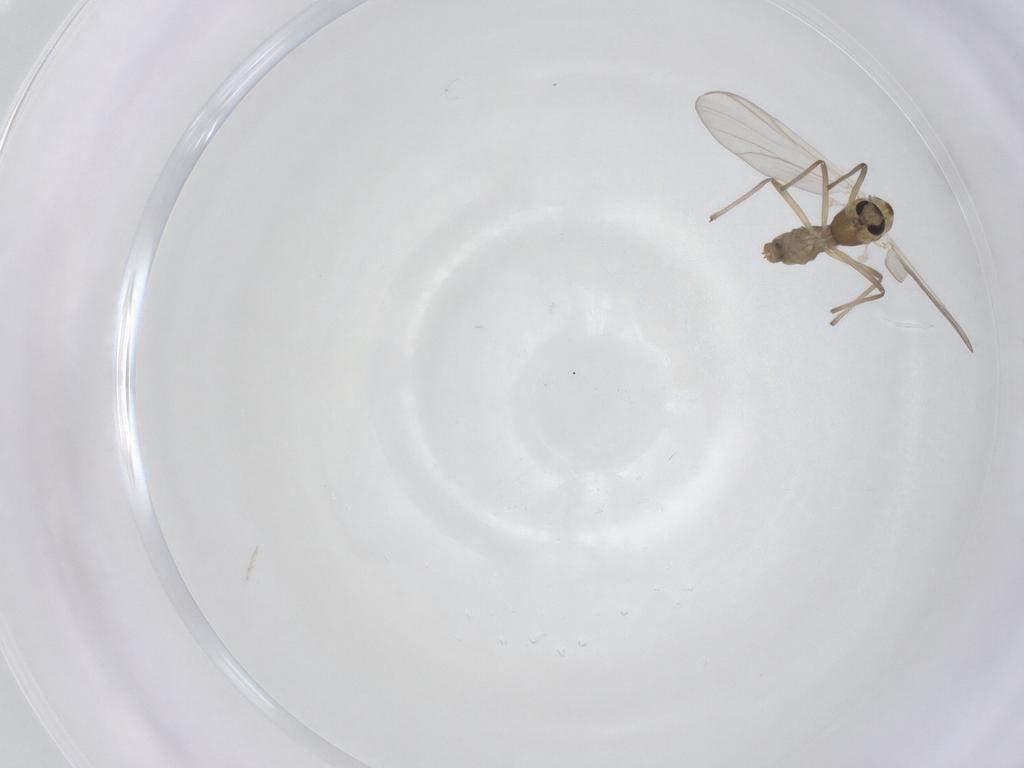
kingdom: Animalia
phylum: Arthropoda
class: Insecta
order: Diptera
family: Chironomidae
